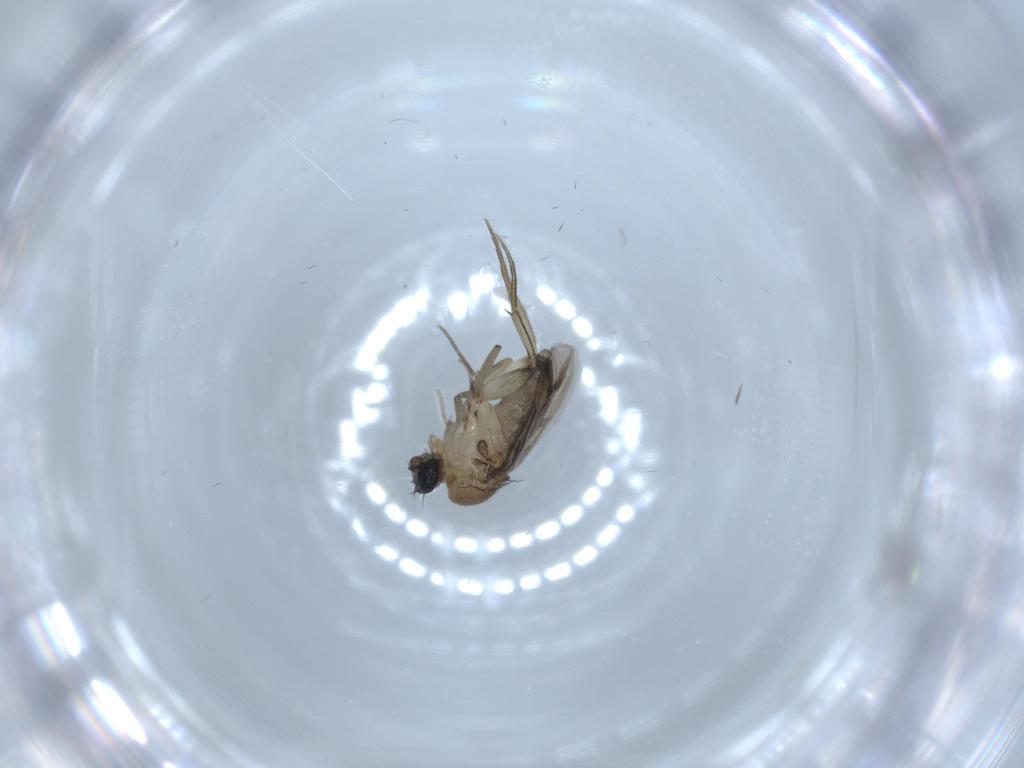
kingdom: Animalia
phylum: Arthropoda
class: Insecta
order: Diptera
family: Phoridae
